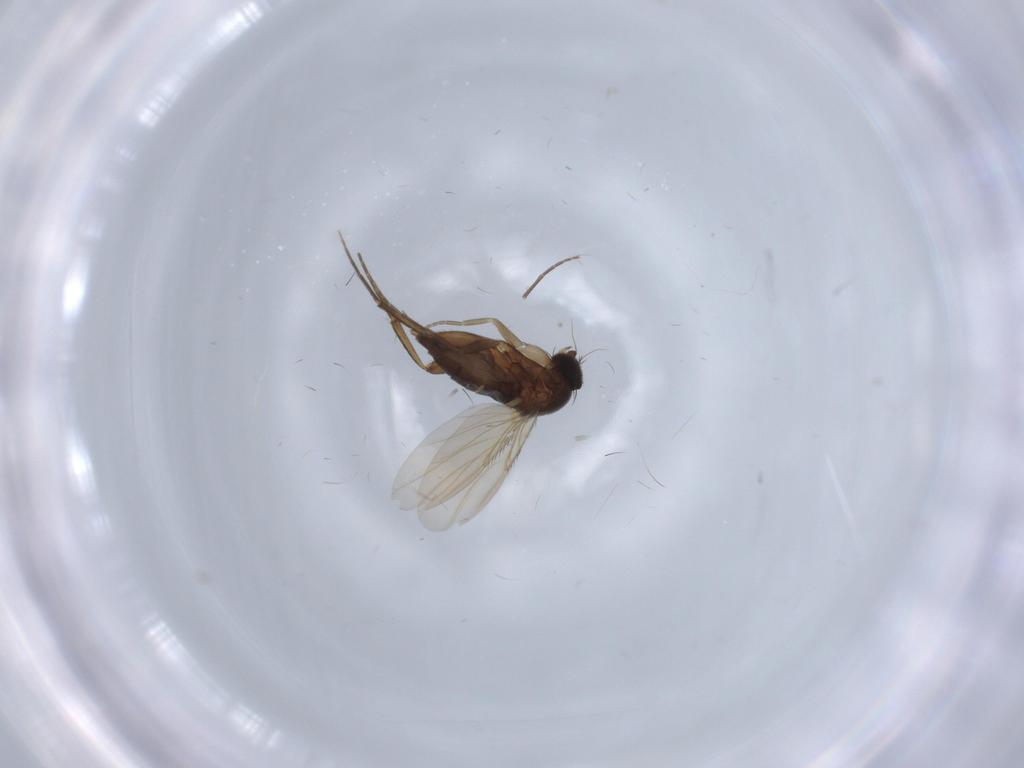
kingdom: Animalia
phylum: Arthropoda
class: Insecta
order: Diptera
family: Phoridae
